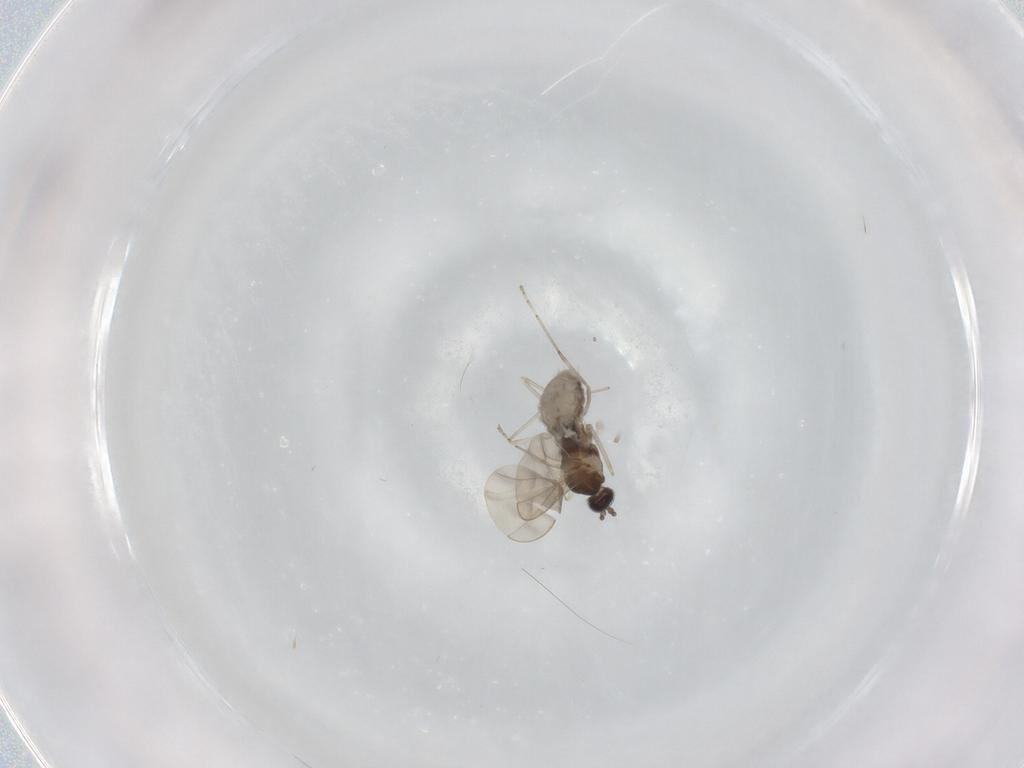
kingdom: Animalia
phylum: Arthropoda
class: Insecta
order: Diptera
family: Cecidomyiidae
